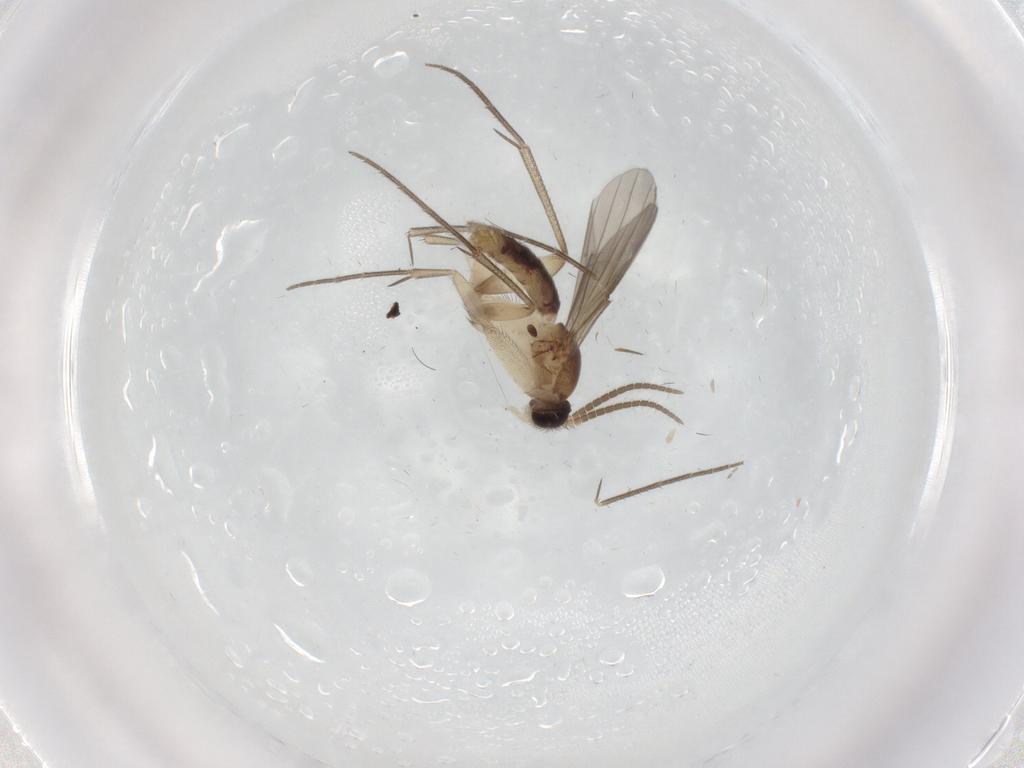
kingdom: Animalia
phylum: Arthropoda
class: Insecta
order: Diptera
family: Mycetophilidae
